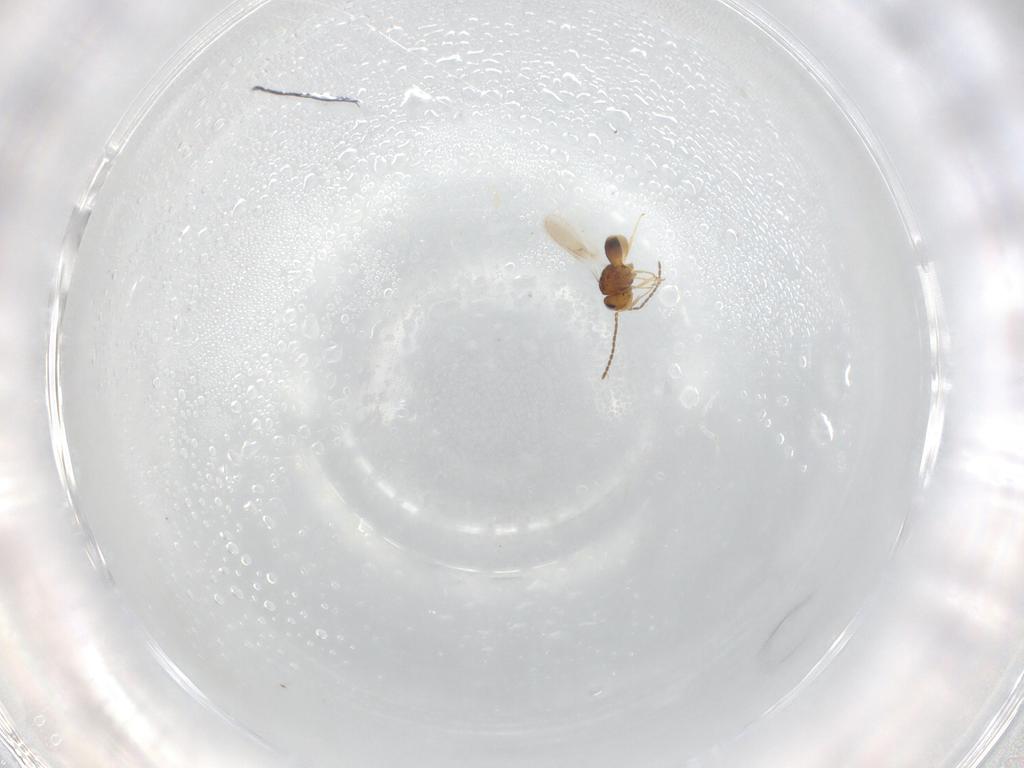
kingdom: Animalia
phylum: Arthropoda
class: Insecta
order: Hymenoptera
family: Scelionidae
